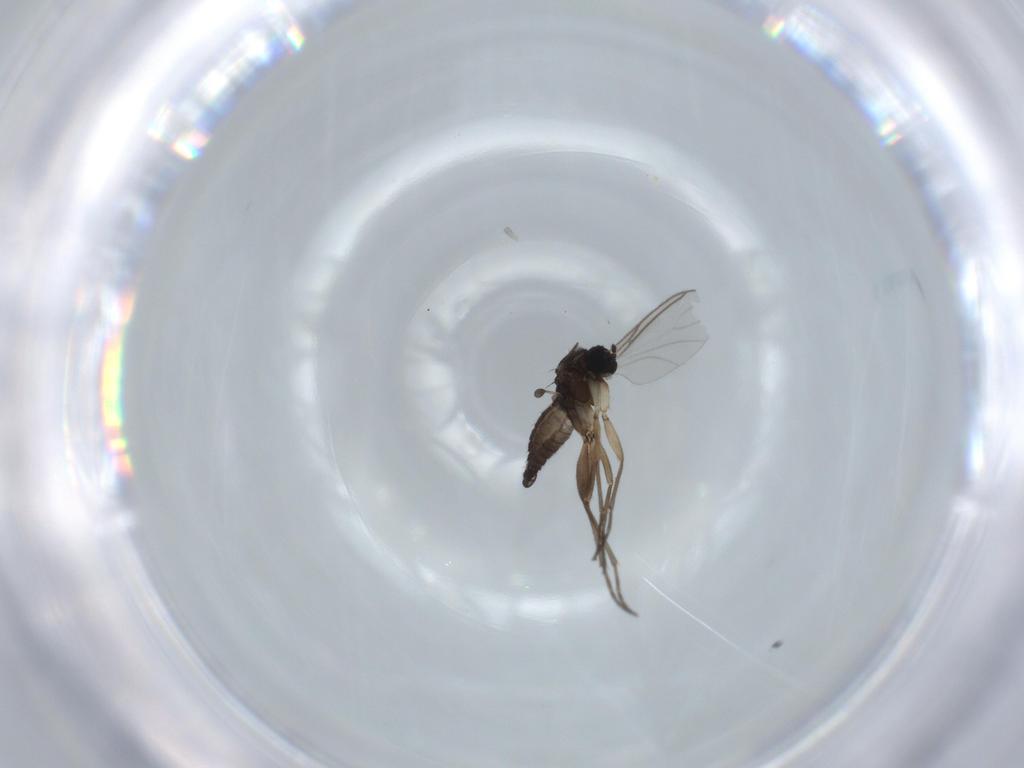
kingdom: Animalia
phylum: Arthropoda
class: Insecta
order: Diptera
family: Sciaridae
